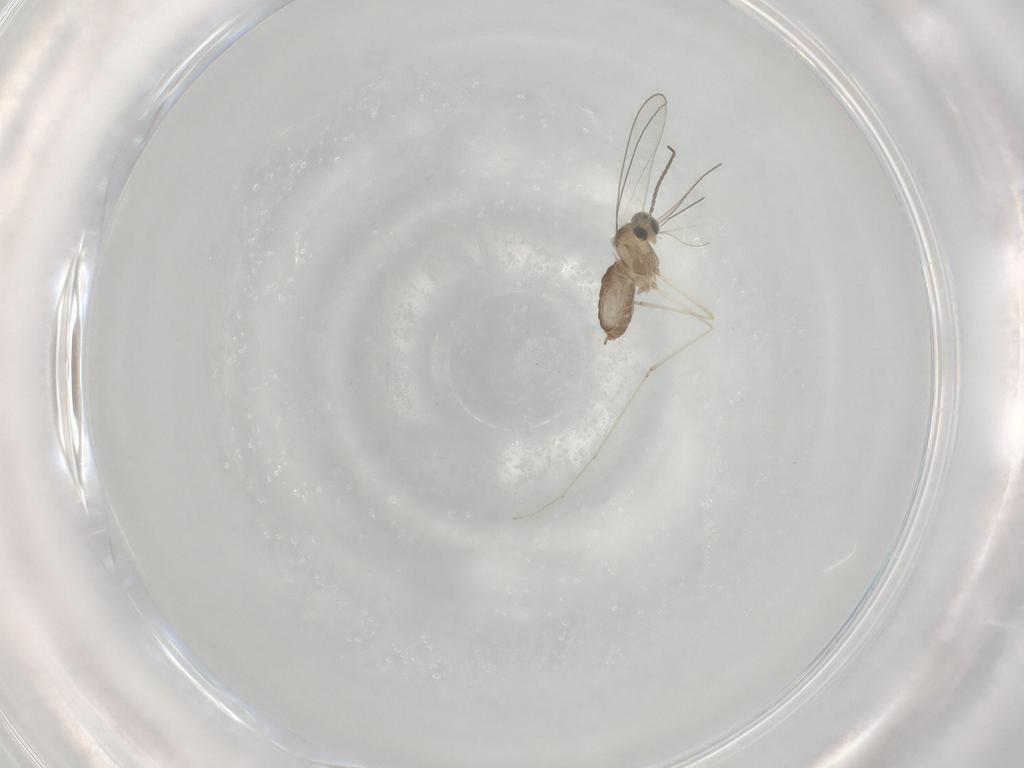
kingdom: Animalia
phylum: Arthropoda
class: Insecta
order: Diptera
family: Cecidomyiidae
